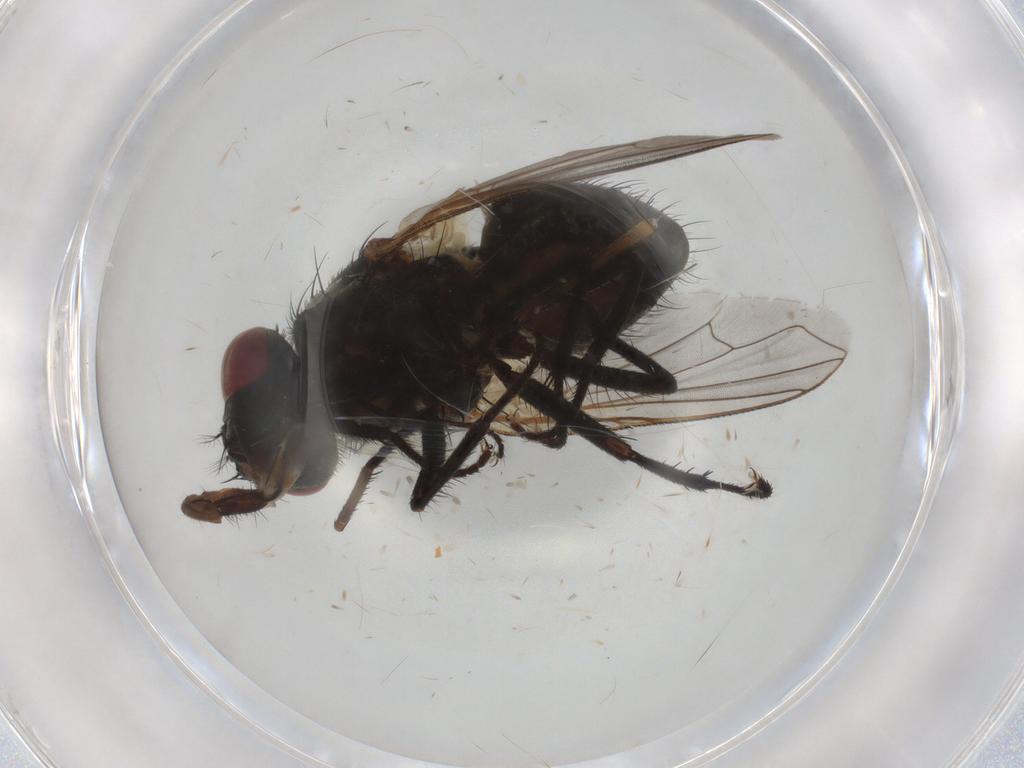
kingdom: Animalia
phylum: Arthropoda
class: Insecta
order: Diptera
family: Muscidae
